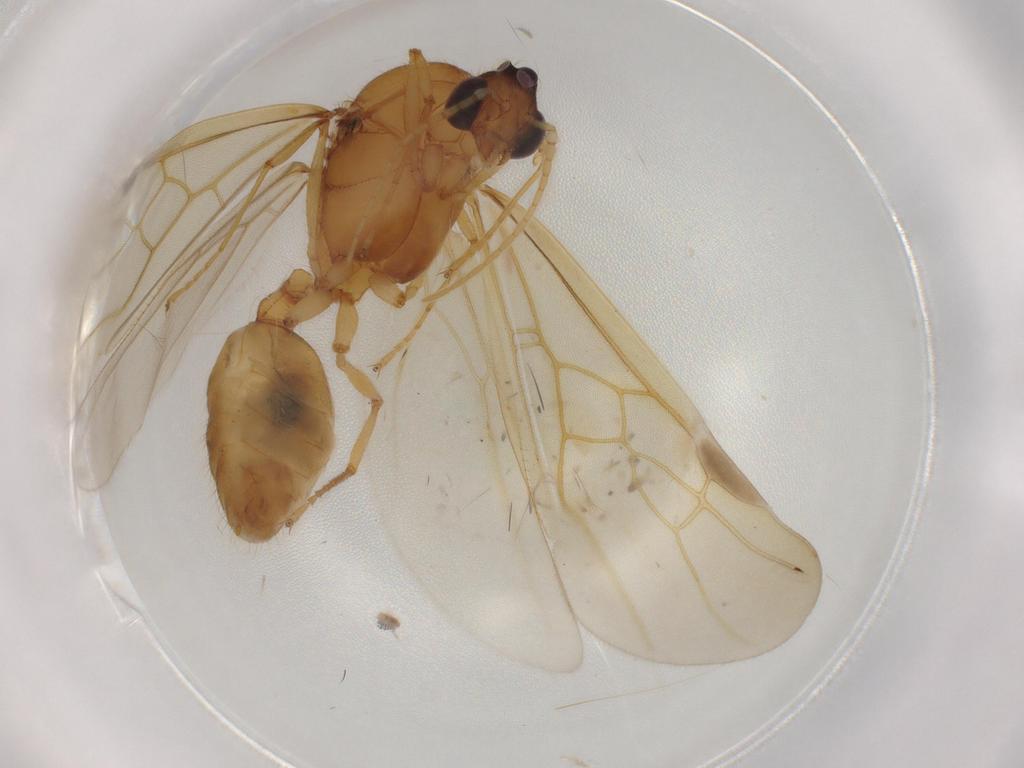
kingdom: Animalia
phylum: Arthropoda
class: Insecta
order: Hymenoptera
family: Formicidae
